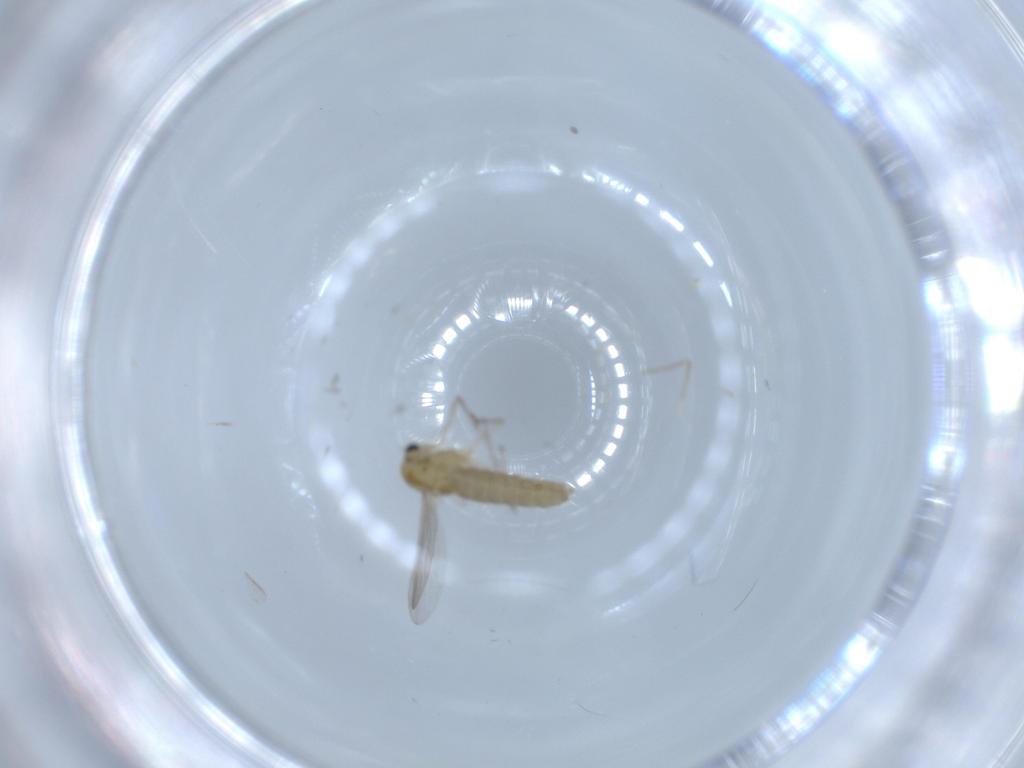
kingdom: Animalia
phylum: Arthropoda
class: Insecta
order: Diptera
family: Chironomidae
